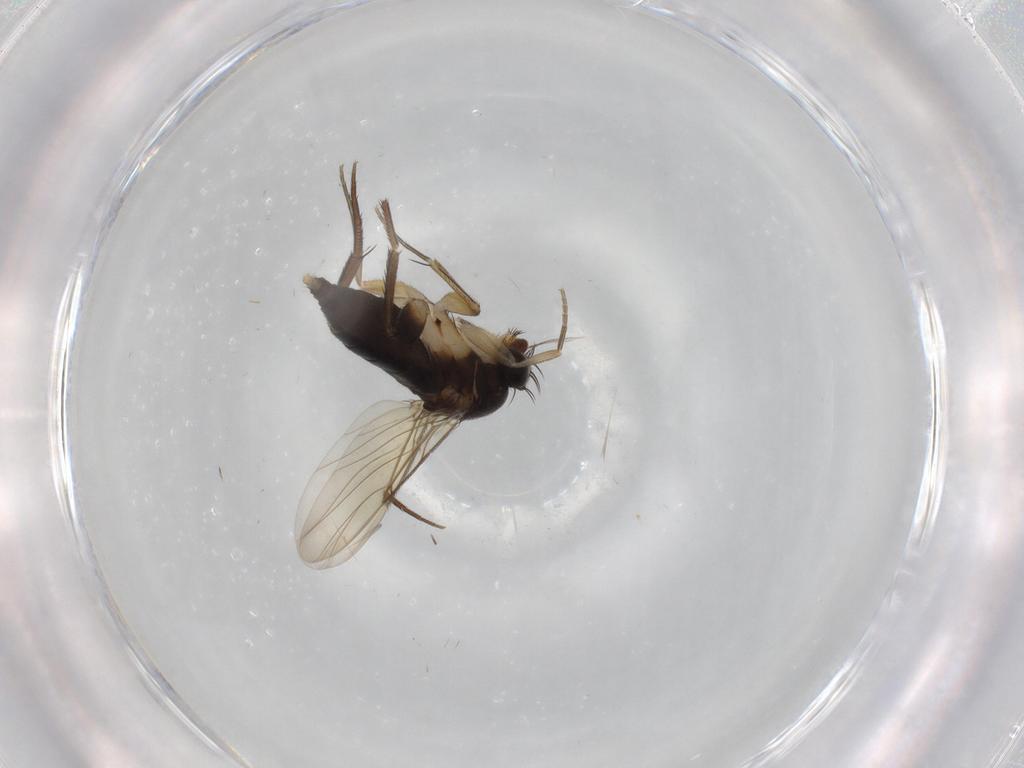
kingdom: Animalia
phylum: Arthropoda
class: Insecta
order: Diptera
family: Phoridae
